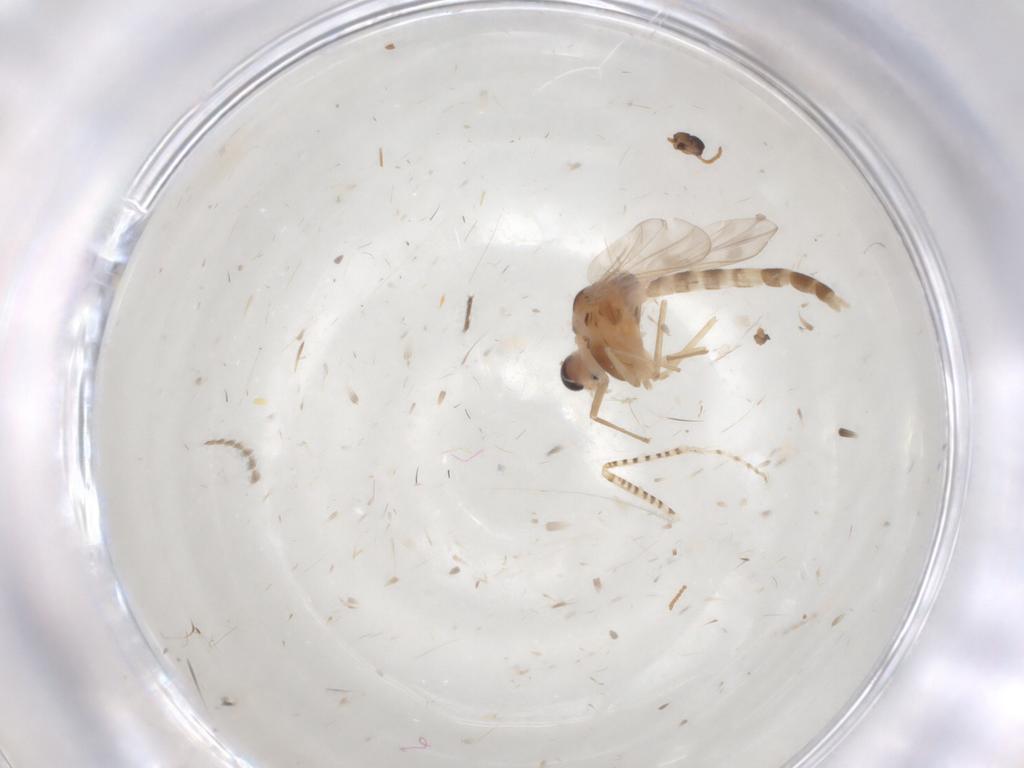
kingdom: Animalia
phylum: Arthropoda
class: Insecta
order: Diptera
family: Chironomidae
